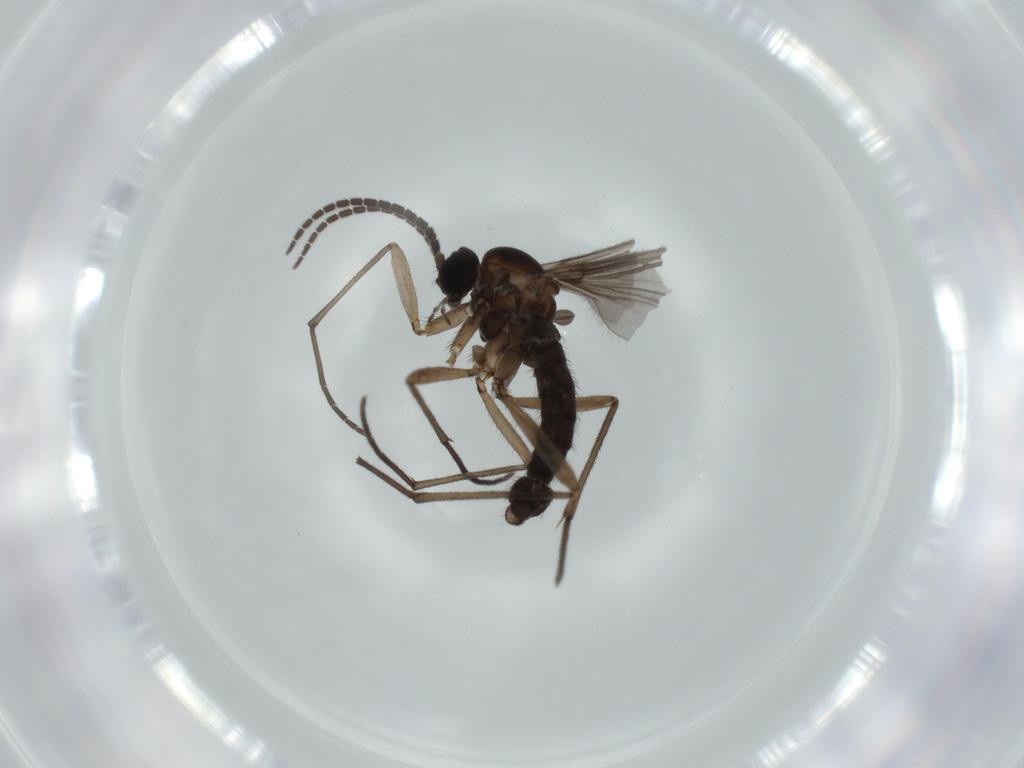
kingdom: Animalia
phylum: Arthropoda
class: Insecta
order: Diptera
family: Sciaridae
